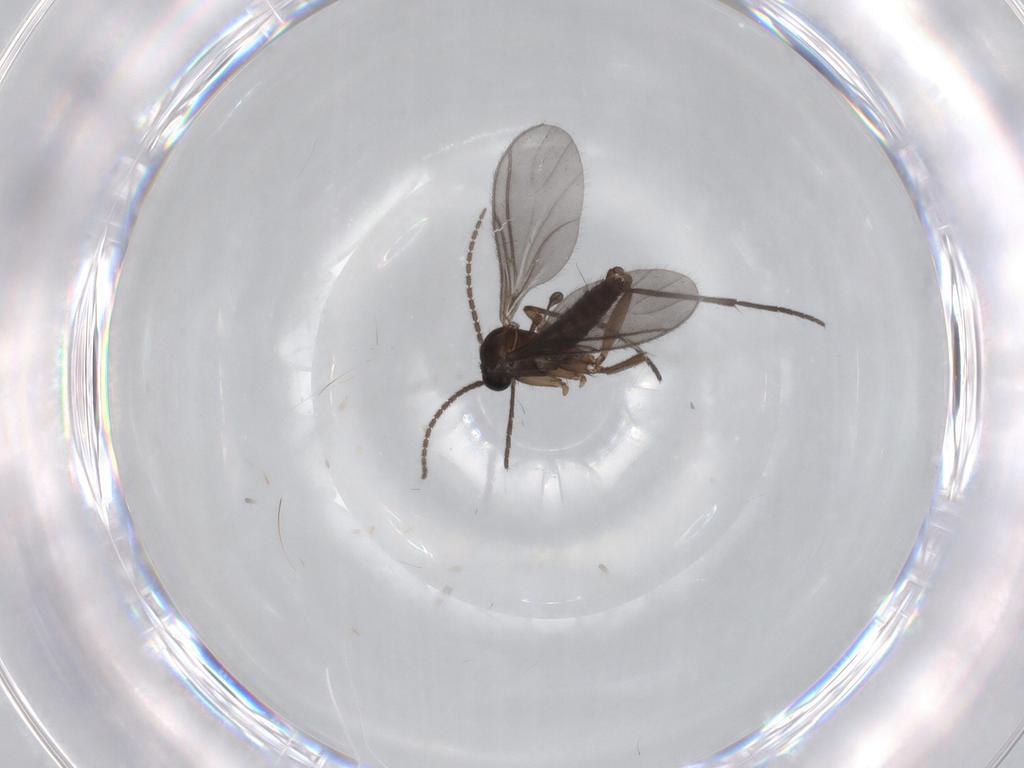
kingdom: Animalia
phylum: Arthropoda
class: Insecta
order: Diptera
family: Sciaridae
